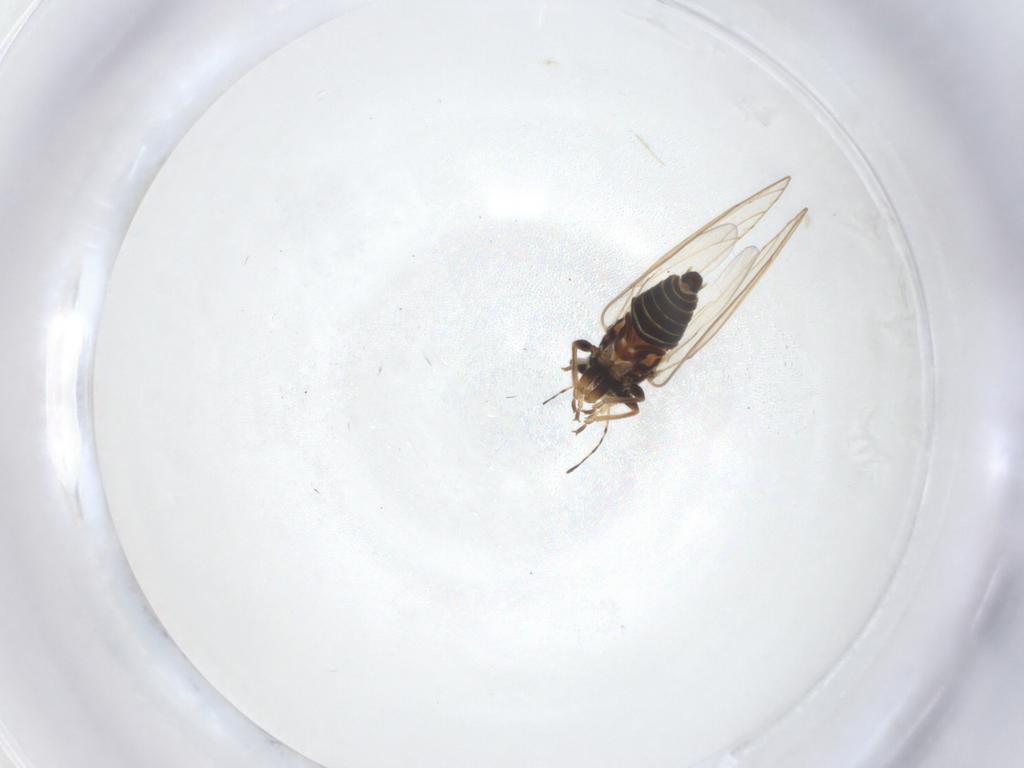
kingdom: Animalia
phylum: Arthropoda
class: Insecta
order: Hemiptera
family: Triozidae
